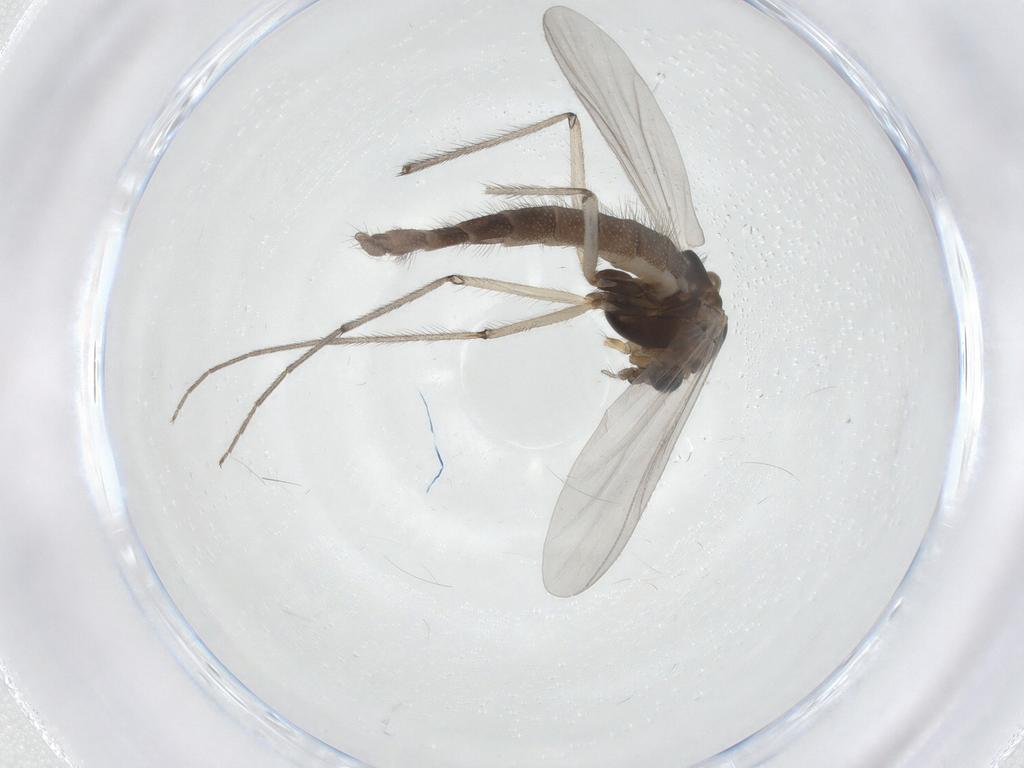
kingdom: Animalia
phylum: Arthropoda
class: Insecta
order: Diptera
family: Chironomidae
